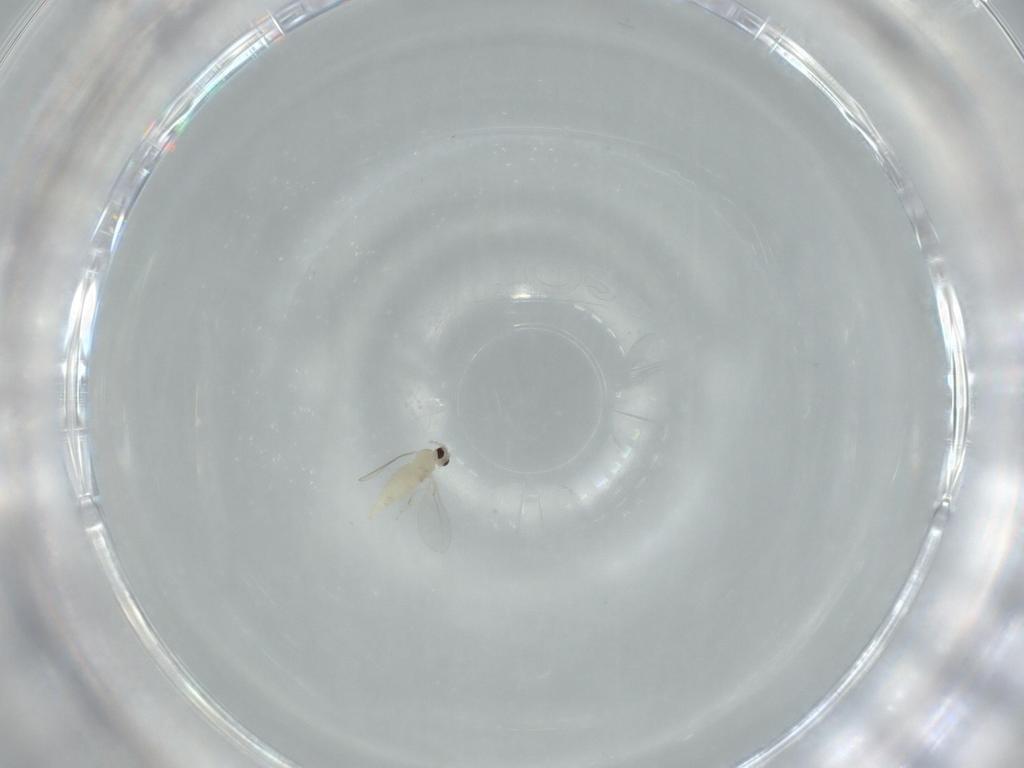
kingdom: Animalia
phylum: Arthropoda
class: Insecta
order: Diptera
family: Cecidomyiidae
